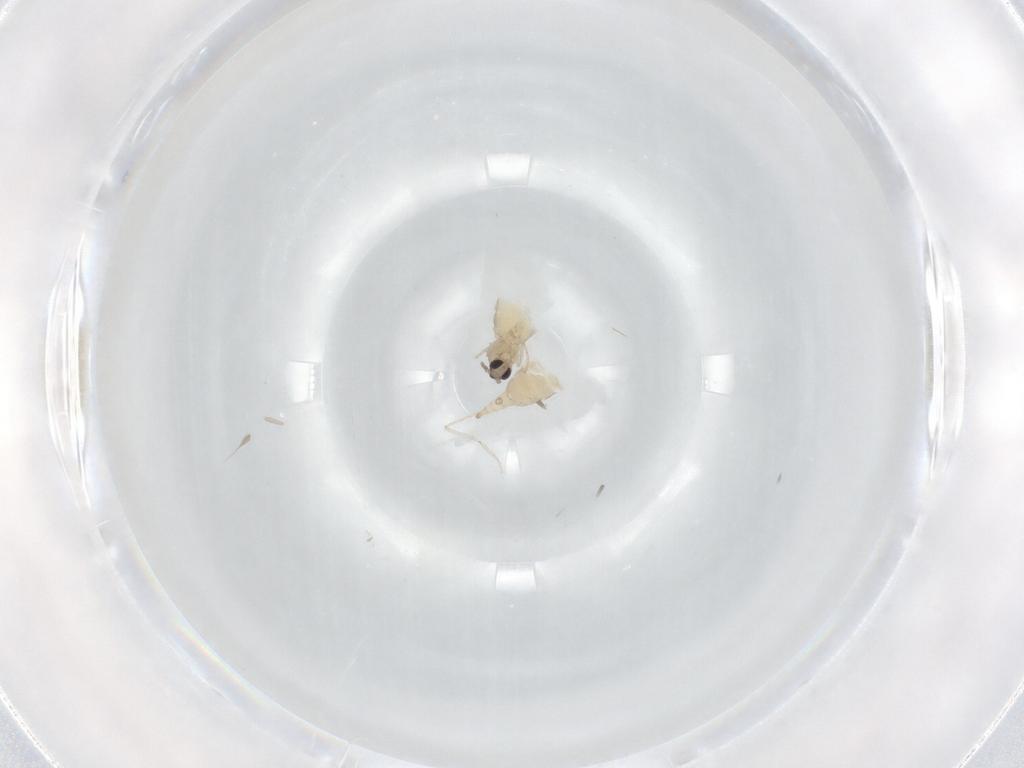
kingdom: Animalia
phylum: Arthropoda
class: Insecta
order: Diptera
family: Cecidomyiidae
